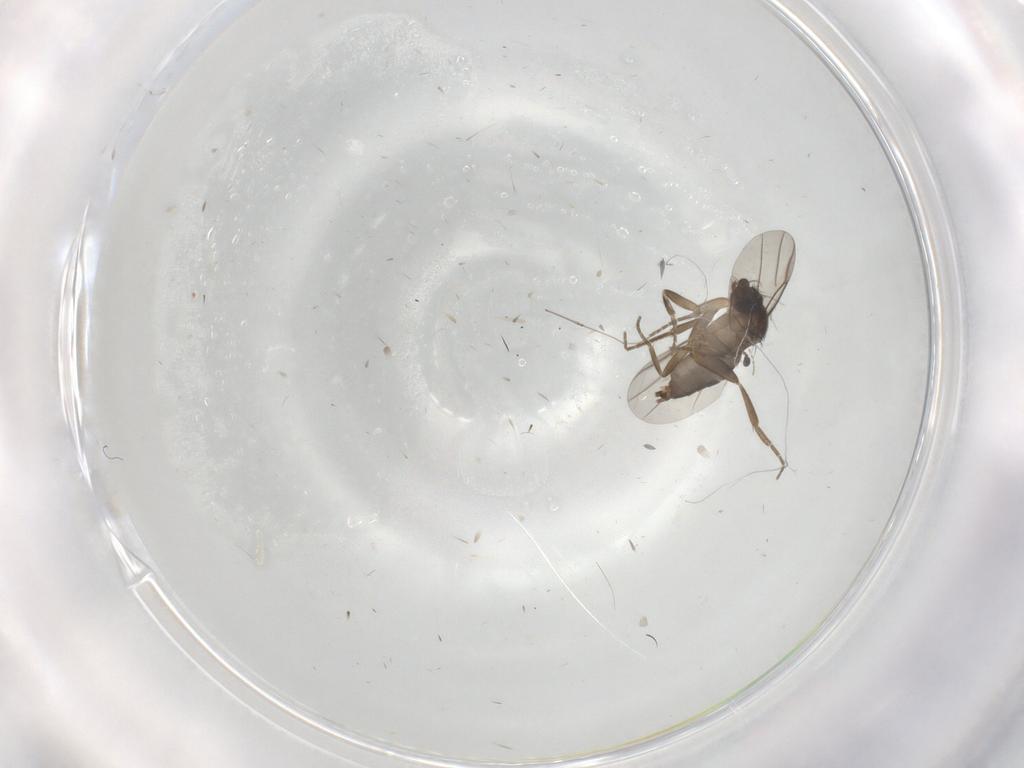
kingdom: Animalia
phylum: Arthropoda
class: Insecta
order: Diptera
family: Cecidomyiidae
